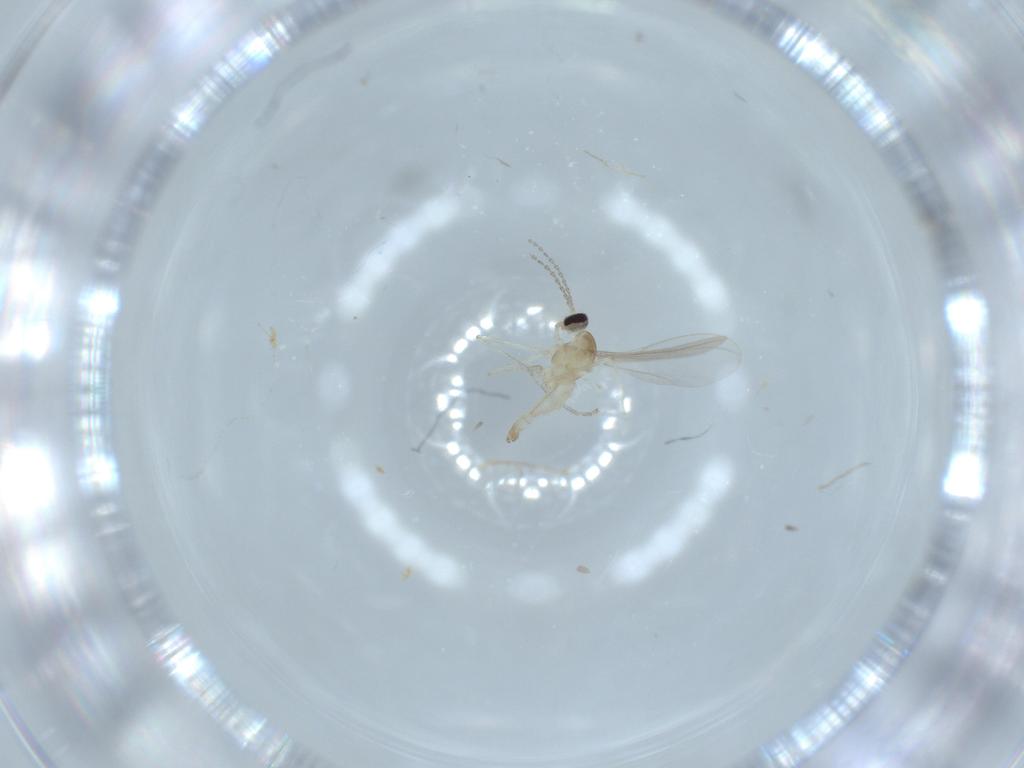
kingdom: Animalia
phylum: Arthropoda
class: Insecta
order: Diptera
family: Cecidomyiidae
